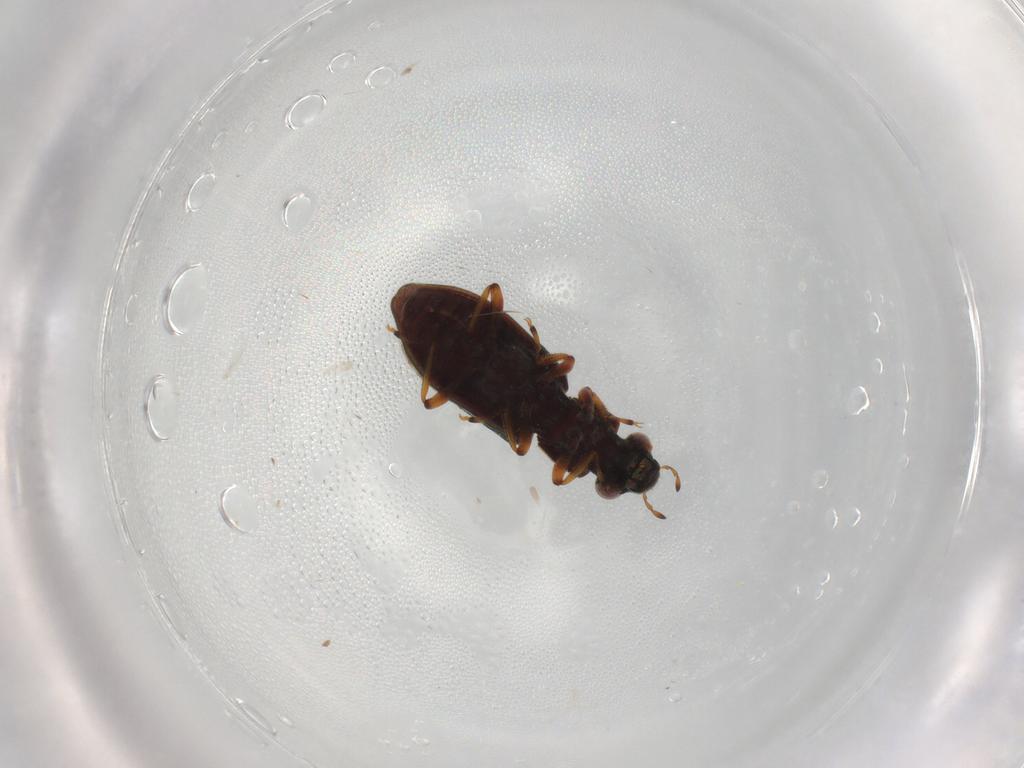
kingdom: Animalia
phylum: Arthropoda
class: Insecta
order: Coleoptera
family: Hydrophilidae
